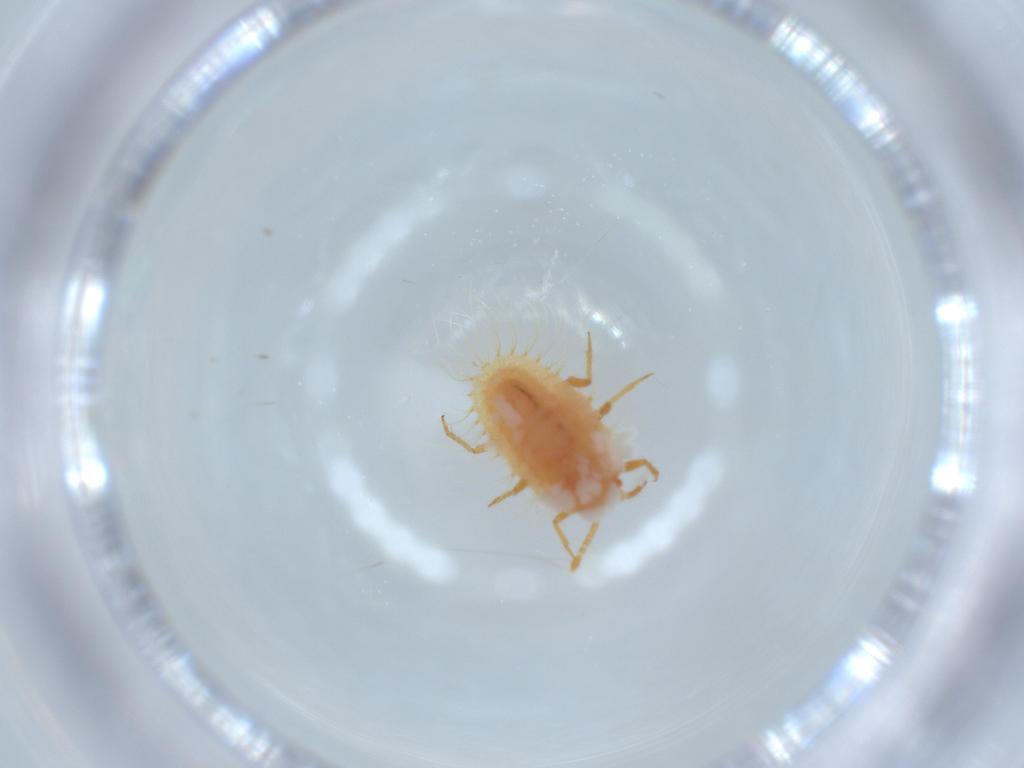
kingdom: Animalia
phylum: Arthropoda
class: Insecta
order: Hemiptera
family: Coccoidea_incertae_sedis
